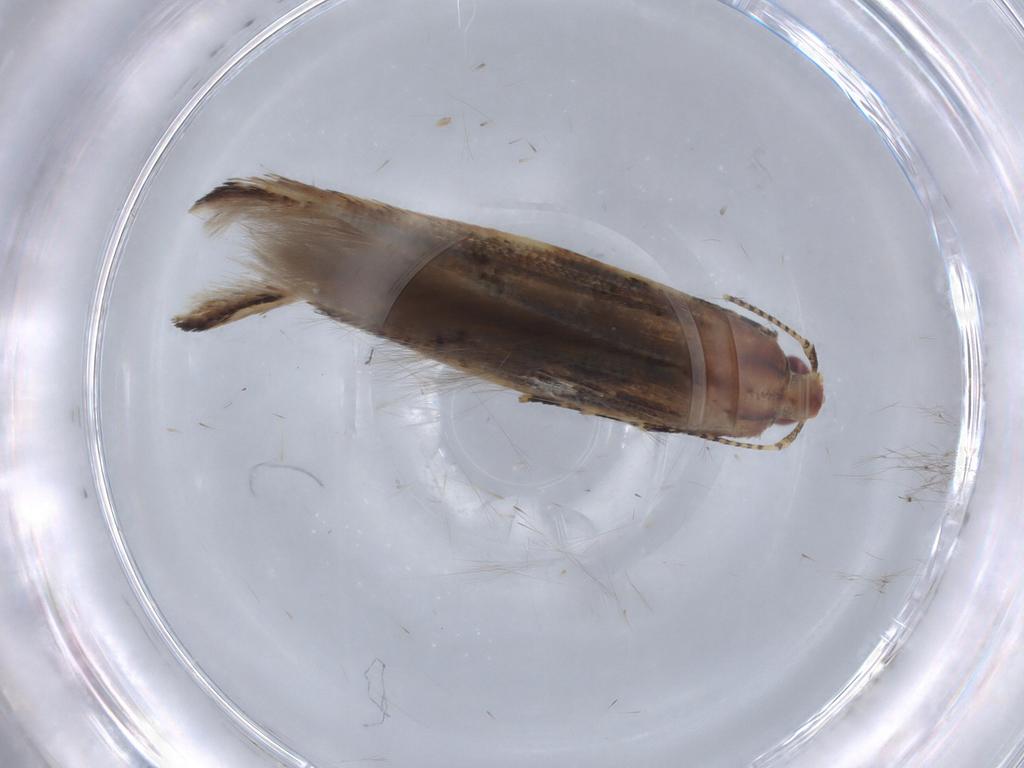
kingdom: Animalia
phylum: Arthropoda
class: Insecta
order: Lepidoptera
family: Cosmopterigidae
